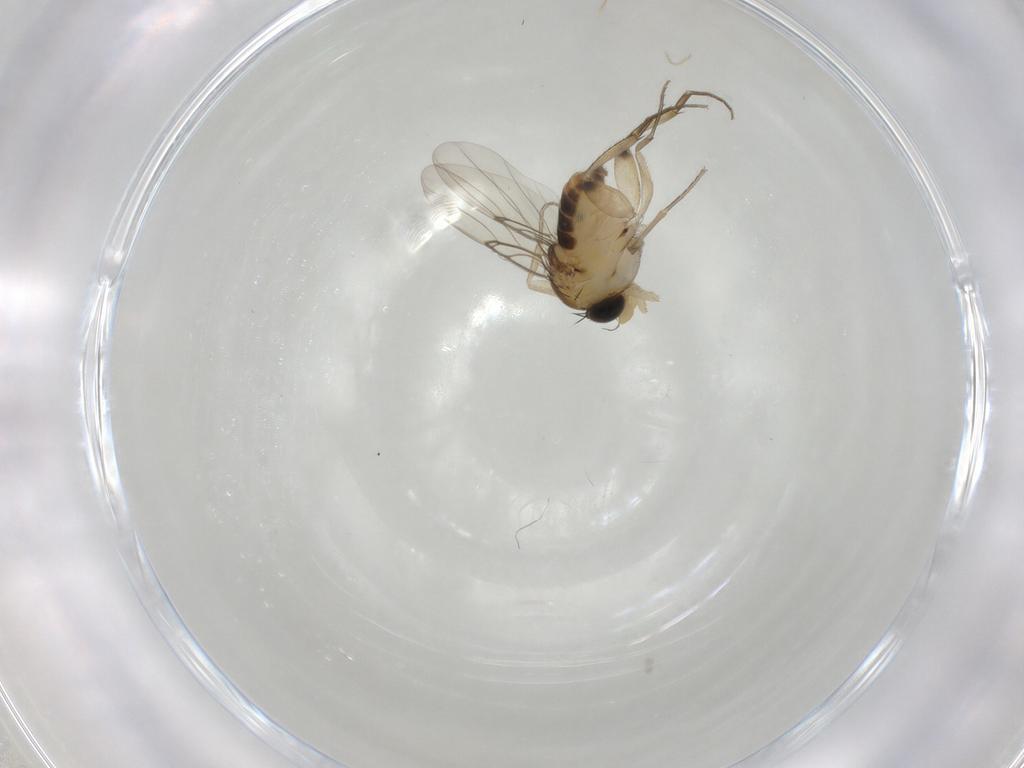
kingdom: Animalia
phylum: Arthropoda
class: Insecta
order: Diptera
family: Phoridae
